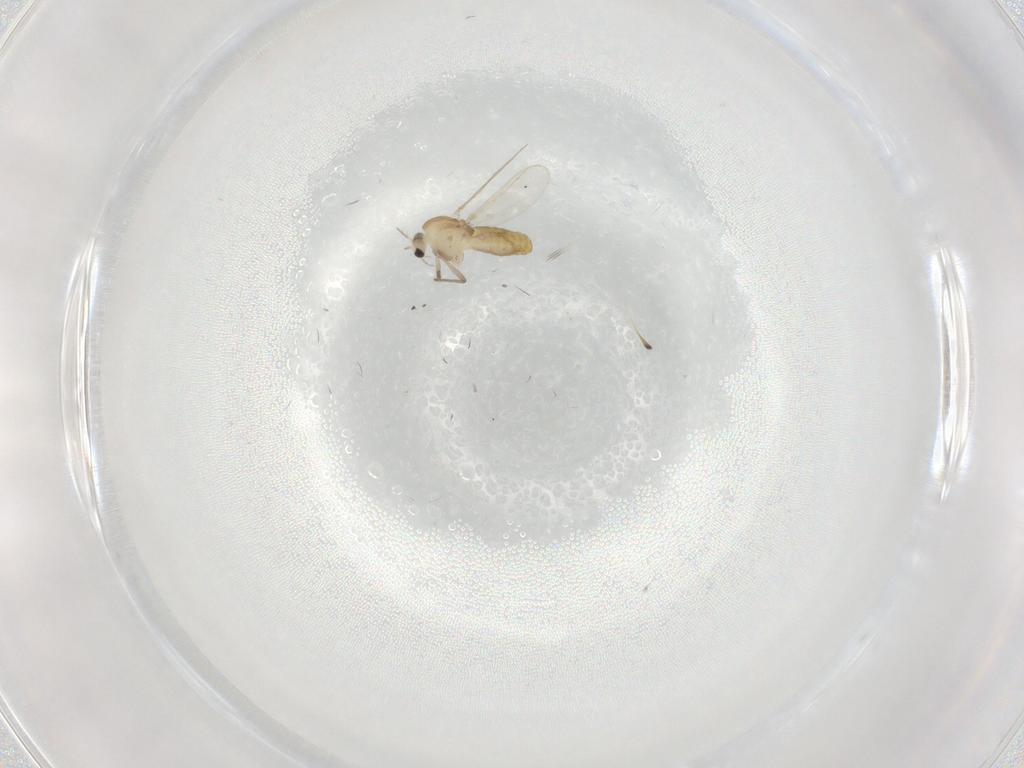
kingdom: Animalia
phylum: Arthropoda
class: Insecta
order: Diptera
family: Chironomidae
